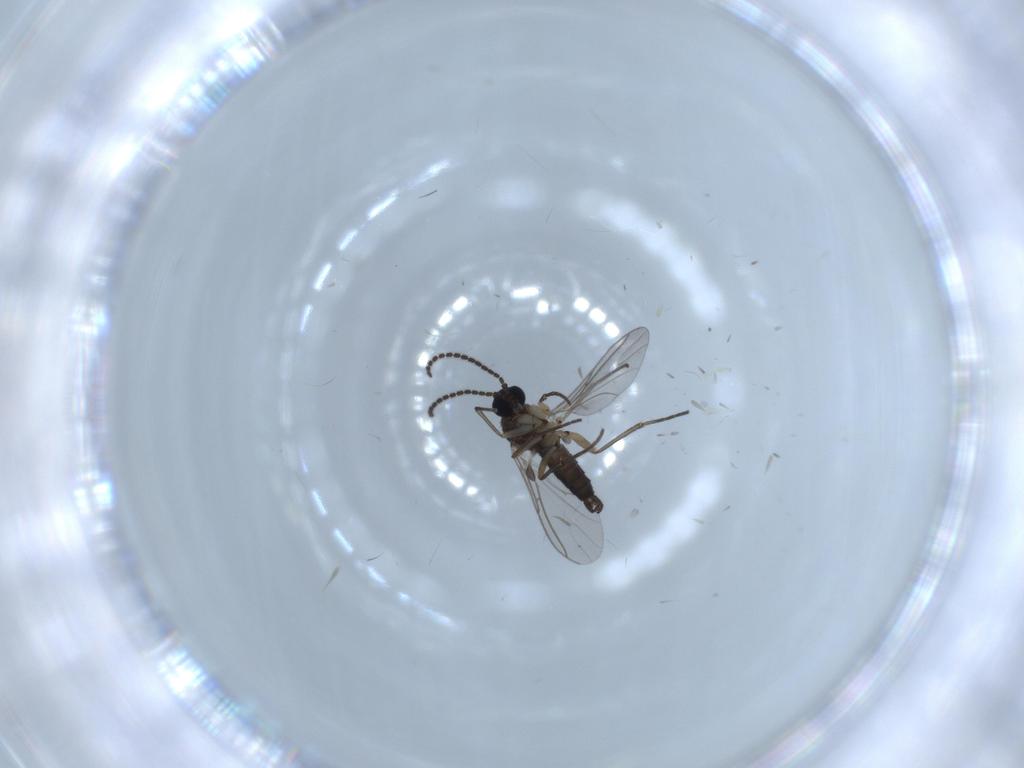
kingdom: Animalia
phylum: Arthropoda
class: Insecta
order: Diptera
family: Sciaridae
